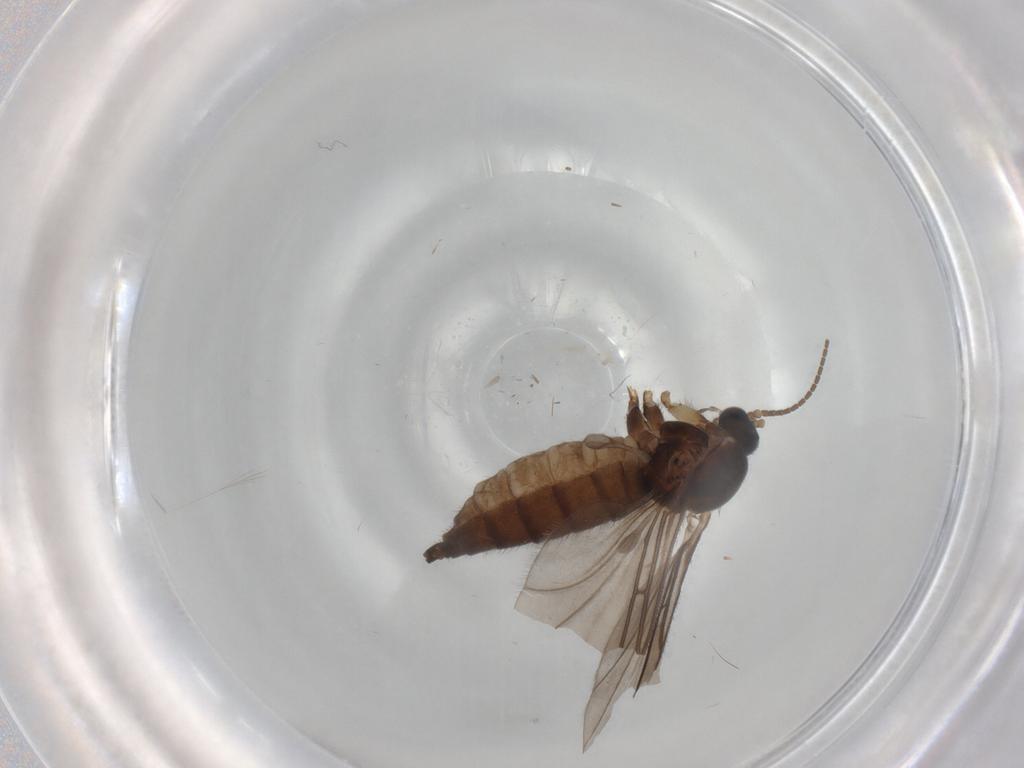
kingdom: Animalia
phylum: Arthropoda
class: Insecta
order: Diptera
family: Sciaridae
